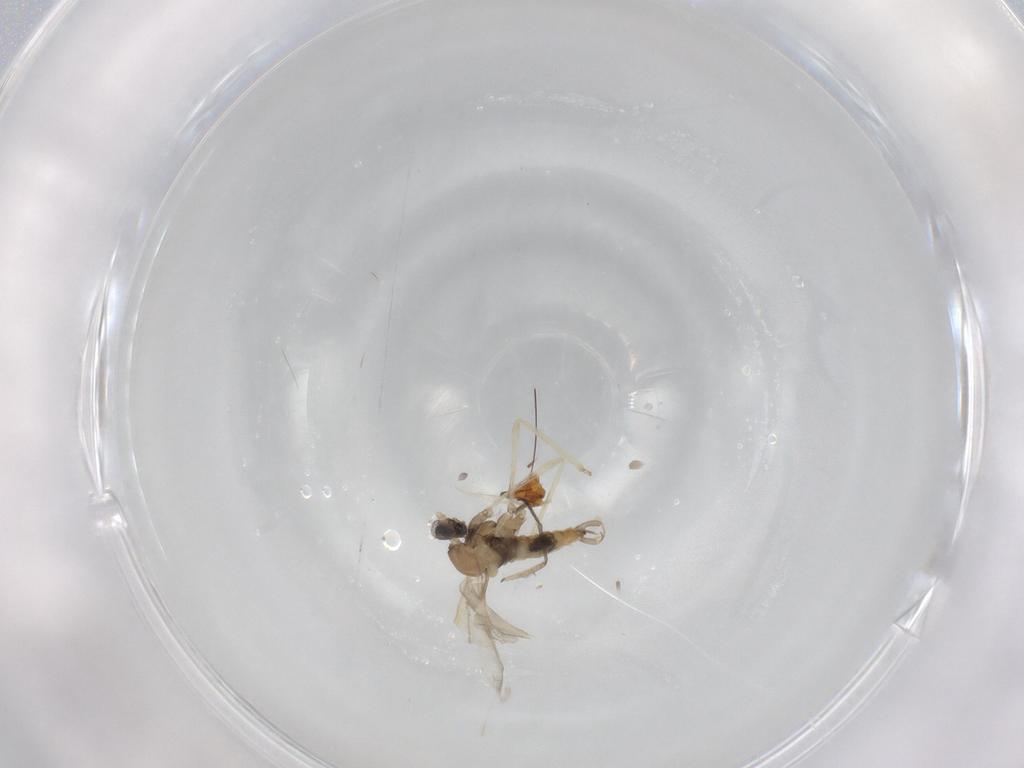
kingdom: Animalia
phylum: Arthropoda
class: Insecta
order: Diptera
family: Cecidomyiidae
